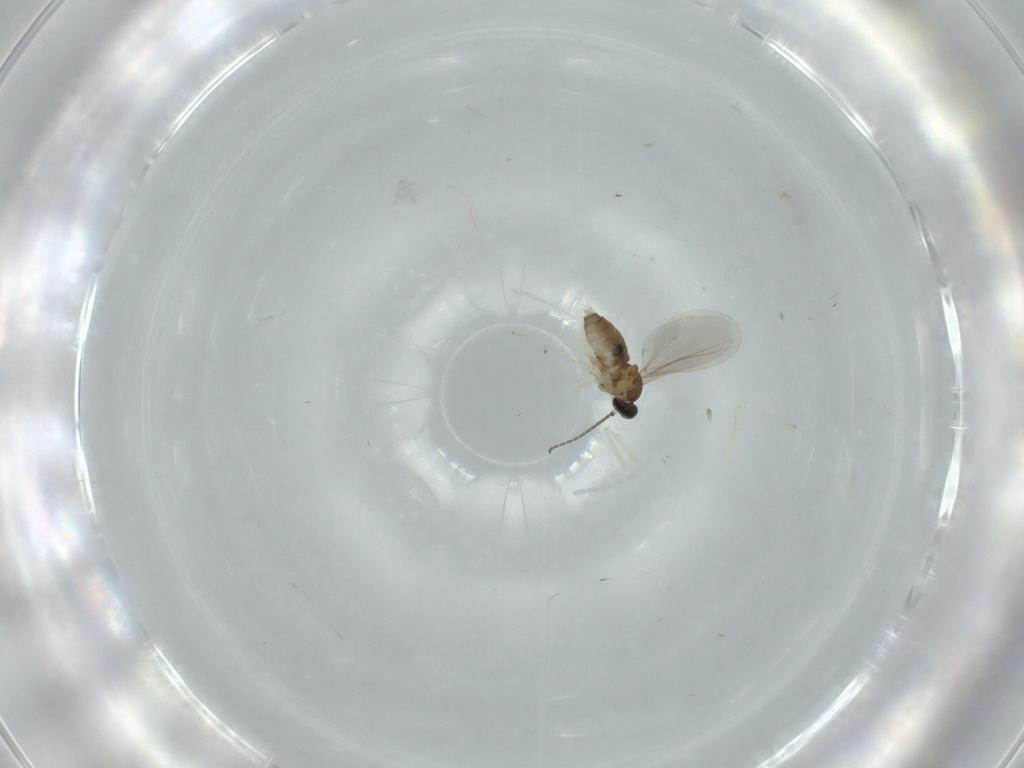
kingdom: Animalia
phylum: Arthropoda
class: Insecta
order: Diptera
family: Cecidomyiidae
